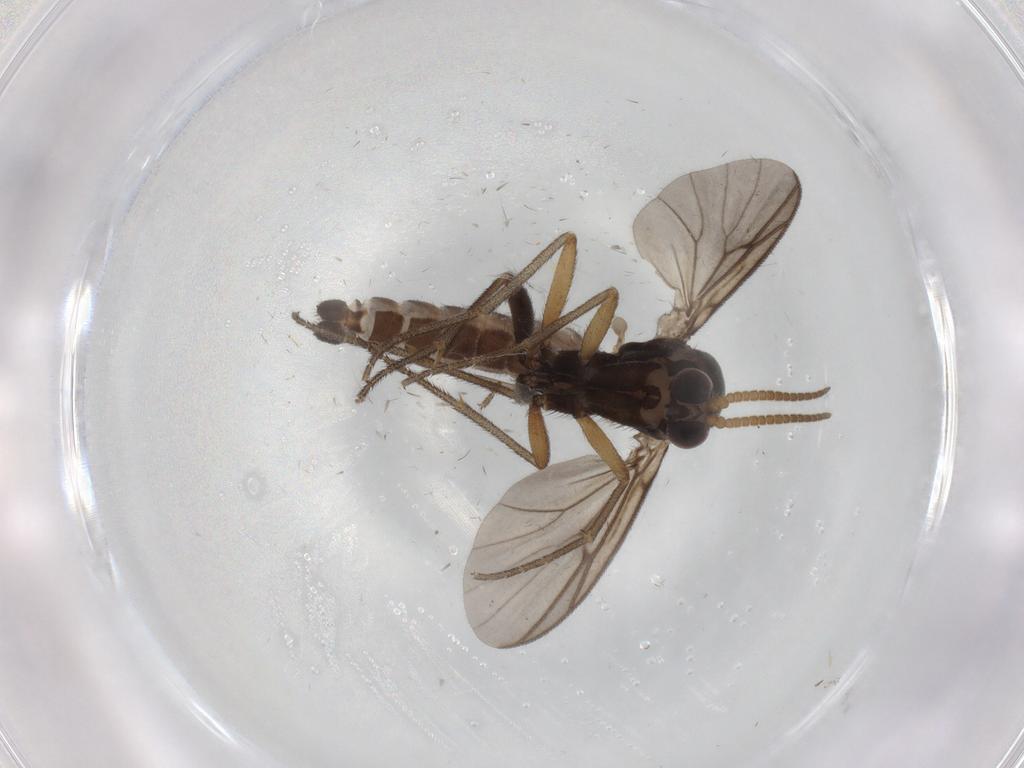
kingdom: Animalia
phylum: Arthropoda
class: Insecta
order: Diptera
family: Mycetophilidae
